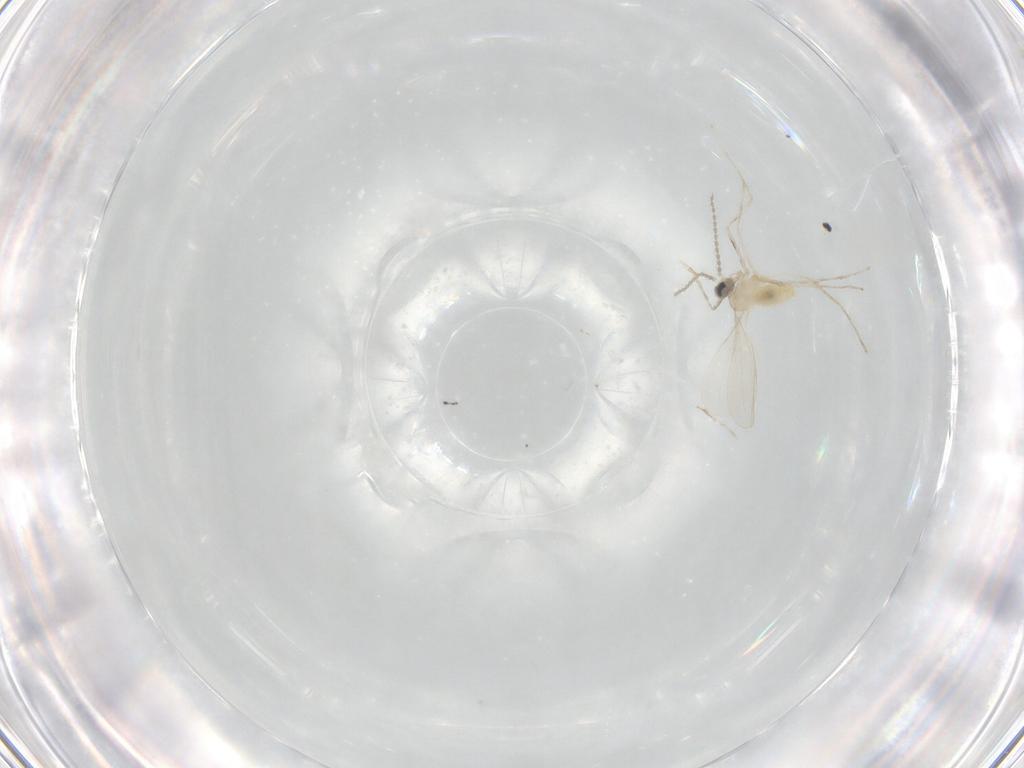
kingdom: Animalia
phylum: Arthropoda
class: Insecta
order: Diptera
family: Cecidomyiidae
